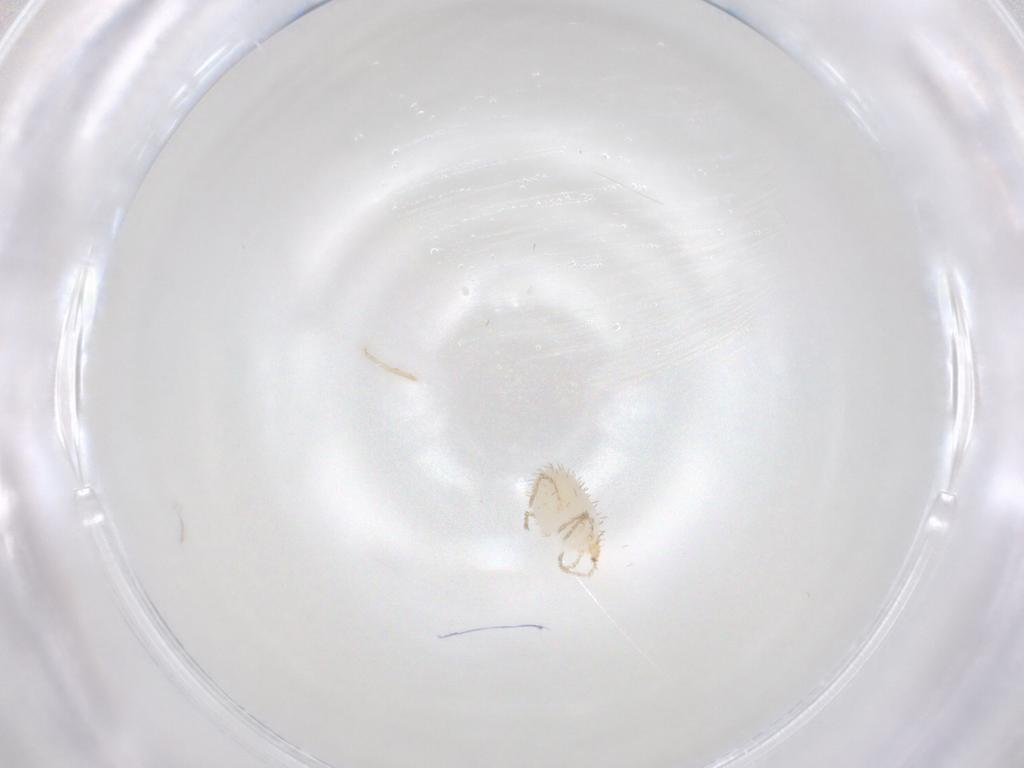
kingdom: Animalia
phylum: Arthropoda
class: Arachnida
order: Trombidiformes
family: Erythraeidae
